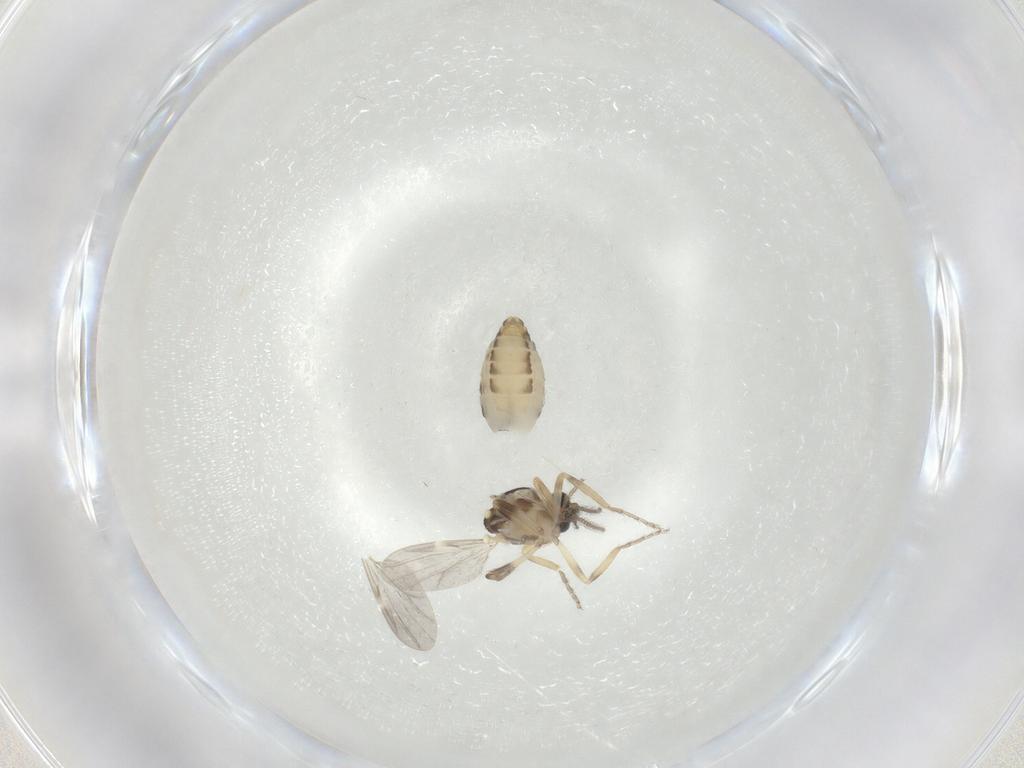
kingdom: Animalia
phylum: Arthropoda
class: Insecta
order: Diptera
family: Ceratopogonidae
